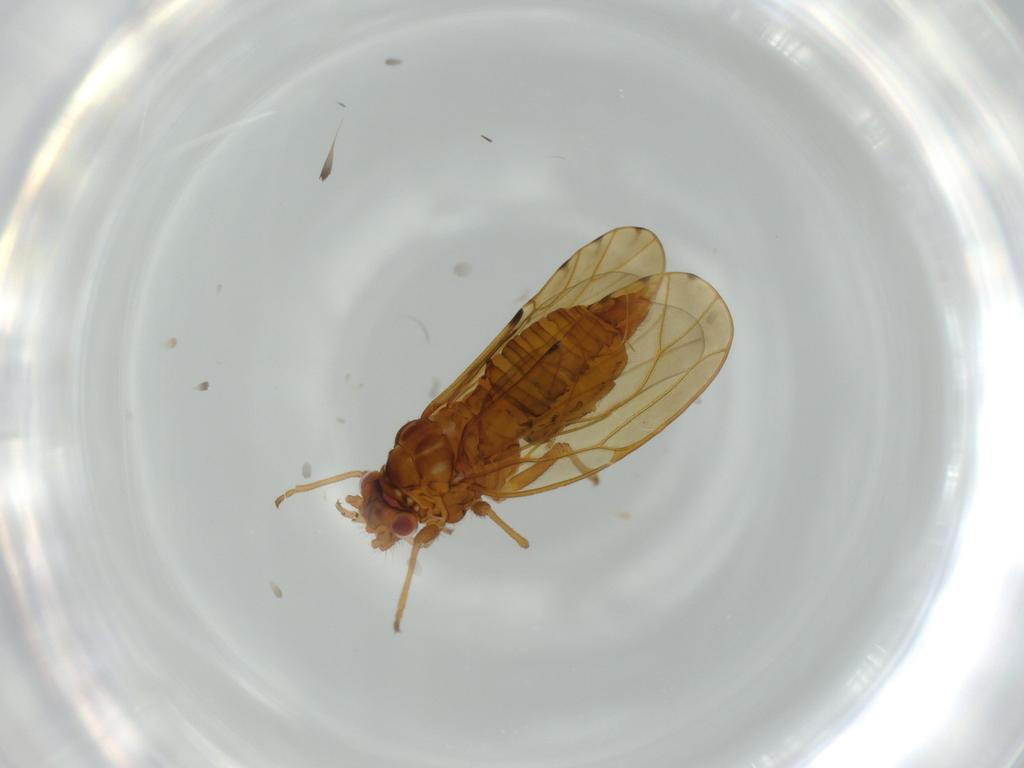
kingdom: Animalia
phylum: Arthropoda
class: Insecta
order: Hemiptera
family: Psylloidea_incertae_sedis
